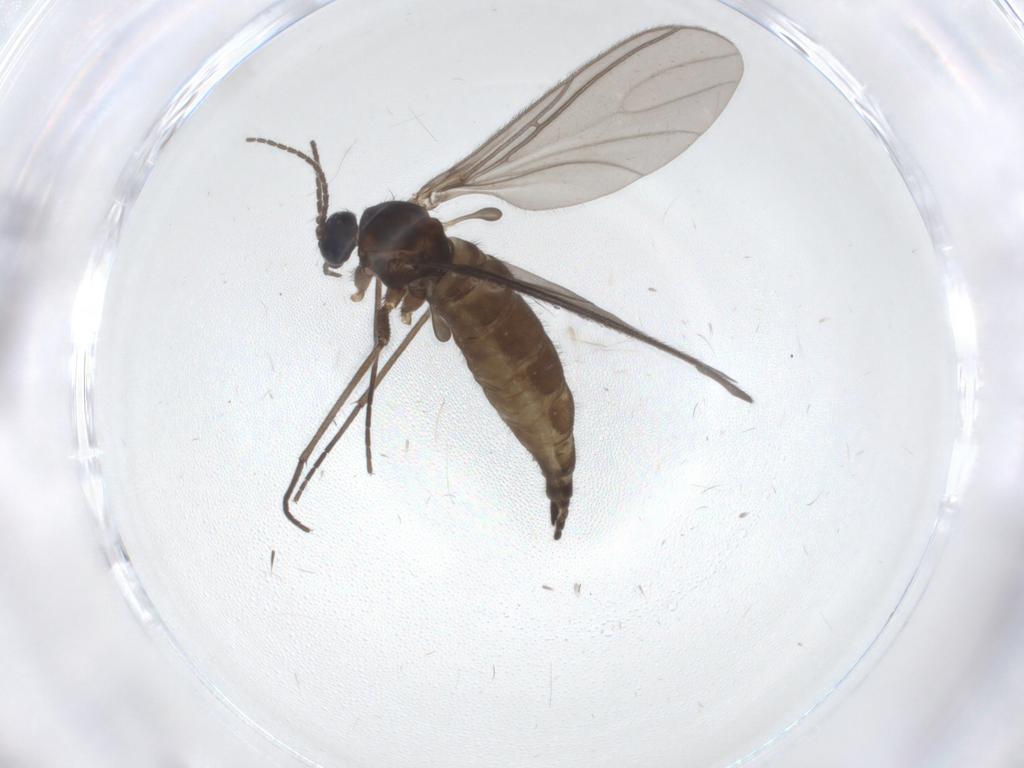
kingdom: Animalia
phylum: Arthropoda
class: Insecta
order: Diptera
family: Sciaridae
